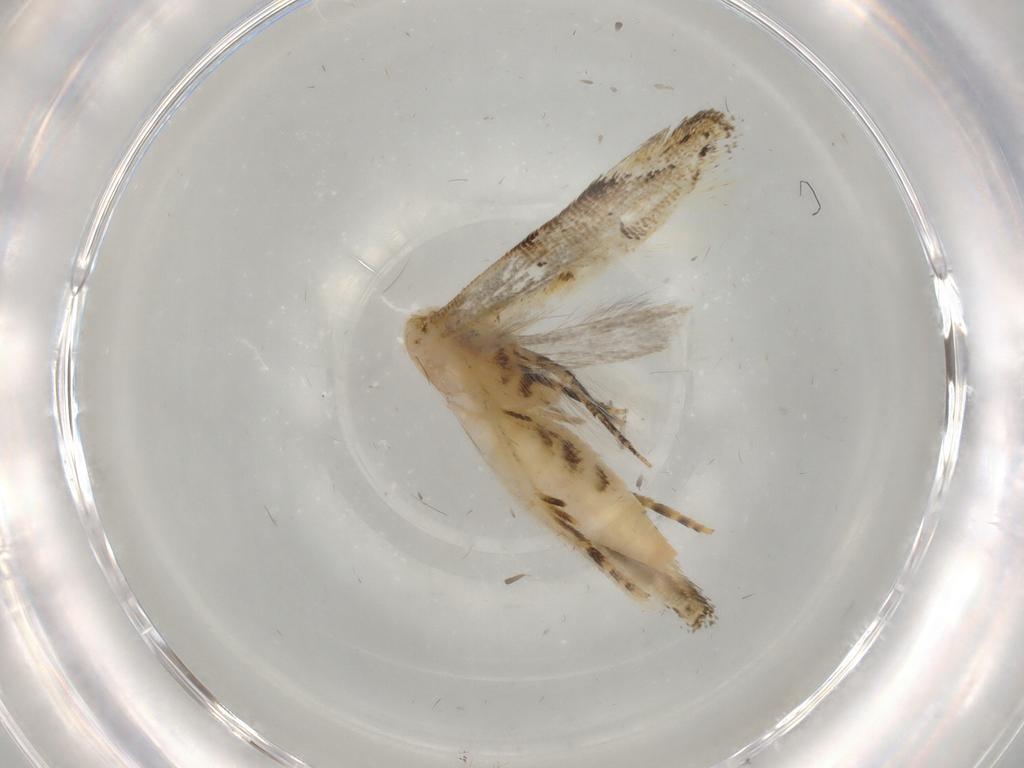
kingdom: Animalia
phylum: Arthropoda
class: Insecta
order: Lepidoptera
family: Gelechiidae
